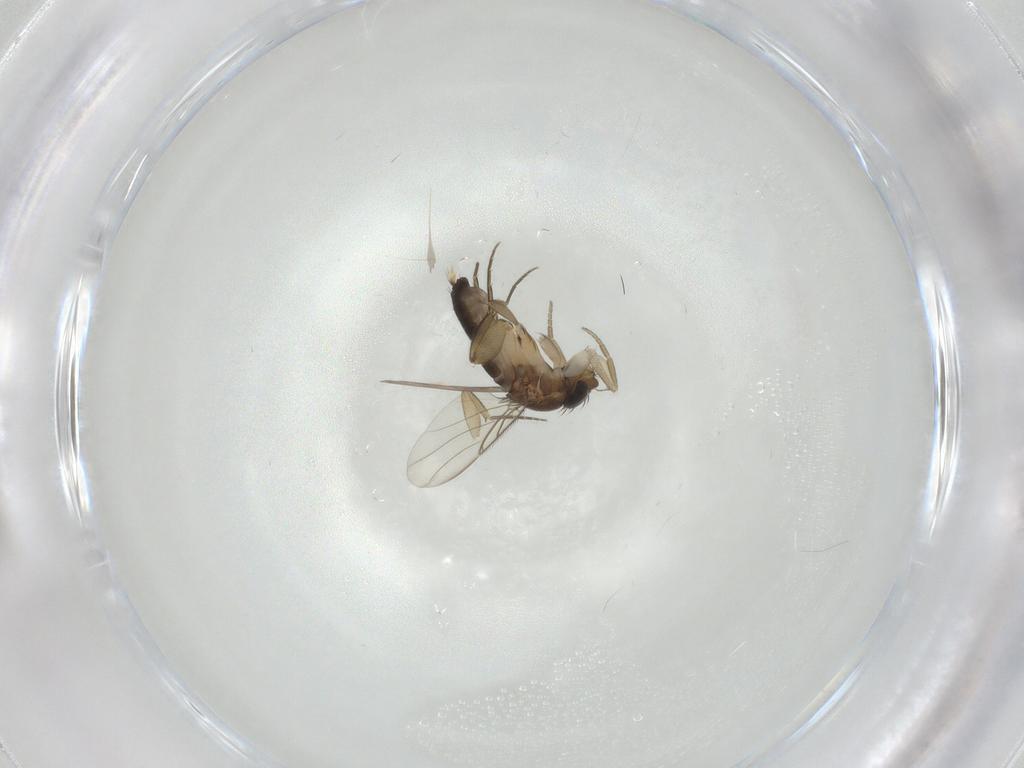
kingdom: Animalia
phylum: Arthropoda
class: Insecta
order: Diptera
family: Phoridae
